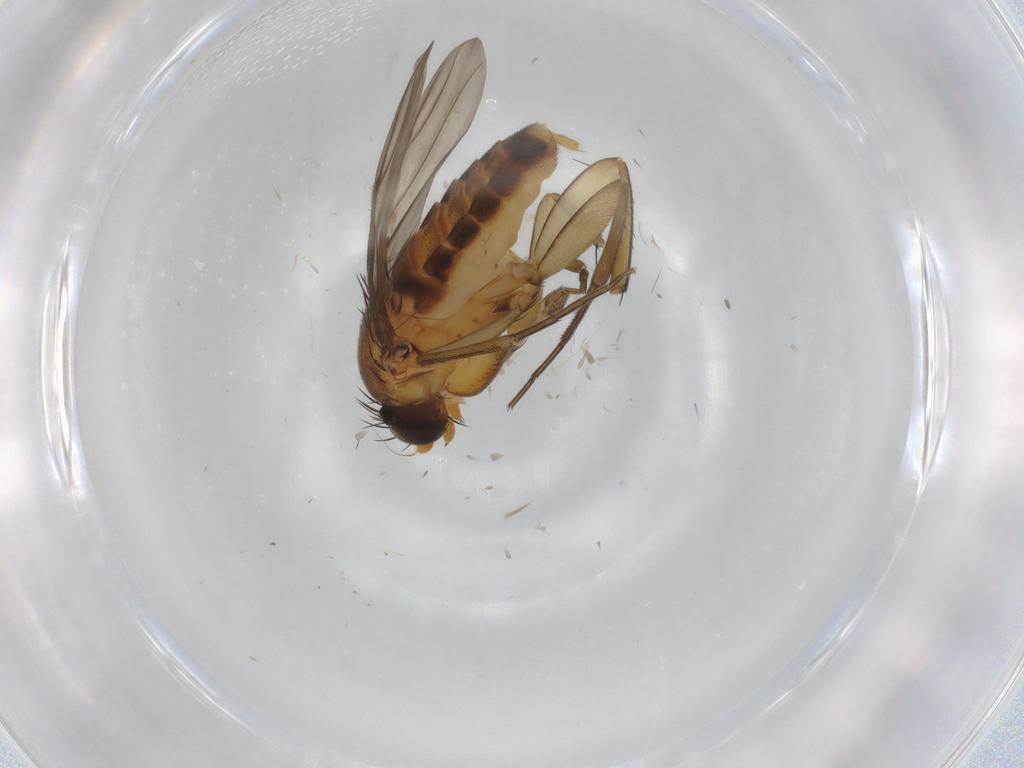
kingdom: Animalia
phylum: Arthropoda
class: Insecta
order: Diptera
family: Mycetophilidae
